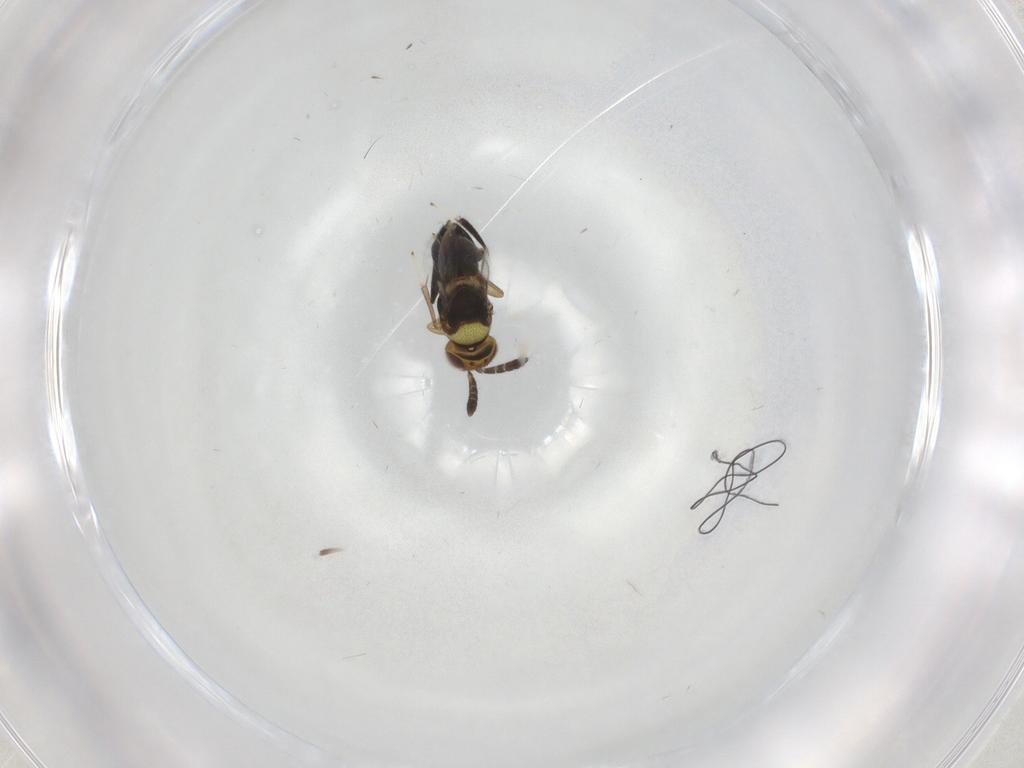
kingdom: Animalia
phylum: Arthropoda
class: Insecta
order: Hymenoptera
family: Aphelinidae
